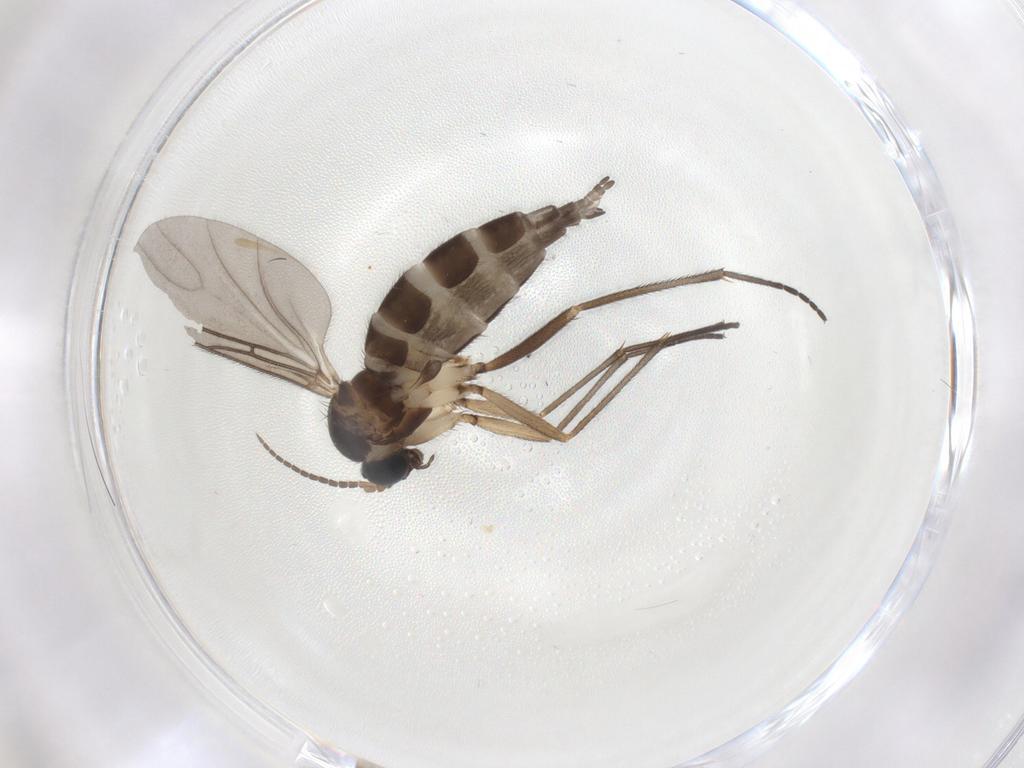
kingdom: Animalia
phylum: Arthropoda
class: Insecta
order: Diptera
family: Sciaridae
